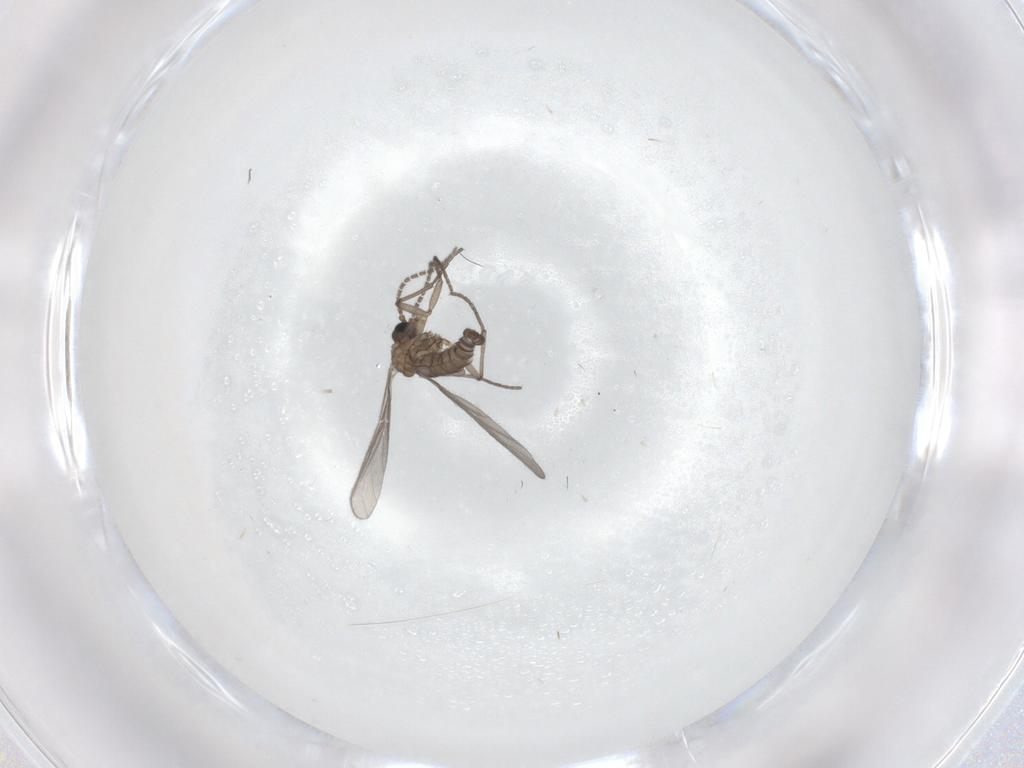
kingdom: Animalia
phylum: Arthropoda
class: Insecta
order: Diptera
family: Sciaridae
